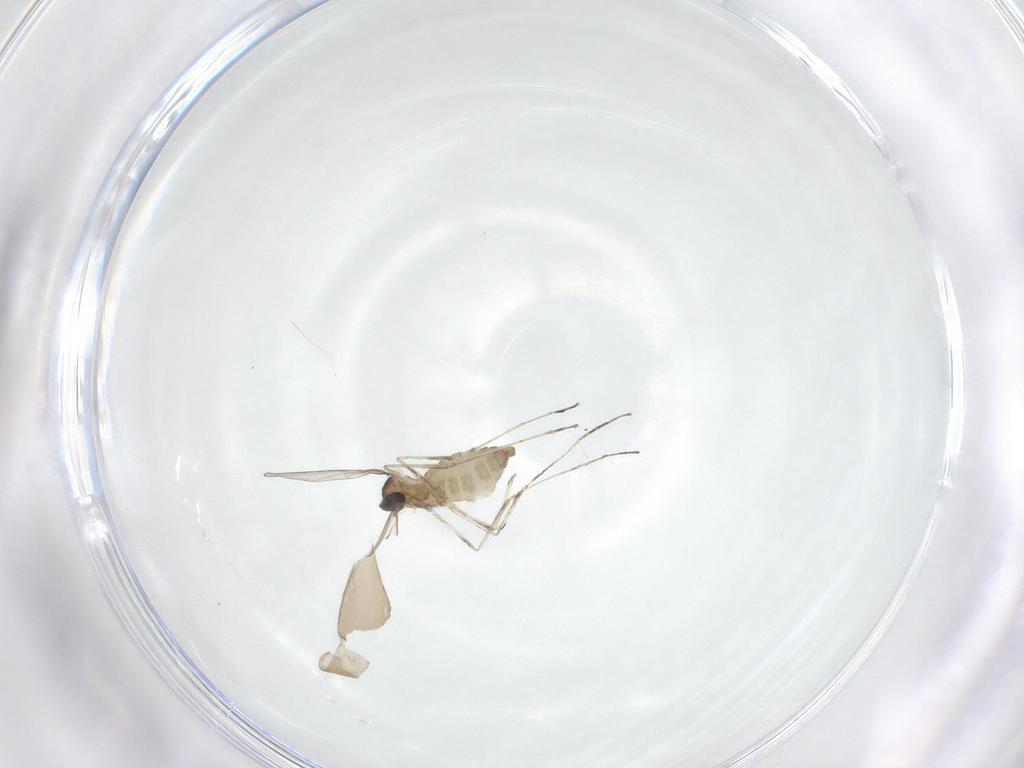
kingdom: Animalia
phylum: Arthropoda
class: Insecta
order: Diptera
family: Cecidomyiidae
